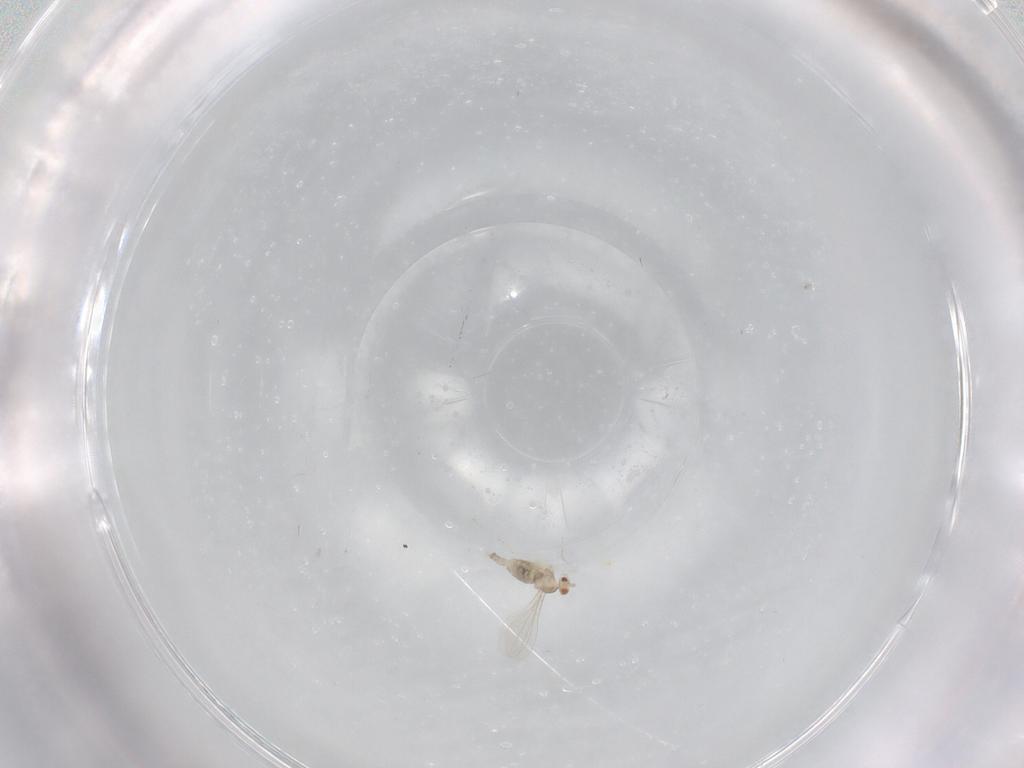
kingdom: Animalia
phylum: Arthropoda
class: Insecta
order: Diptera
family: Cecidomyiidae
